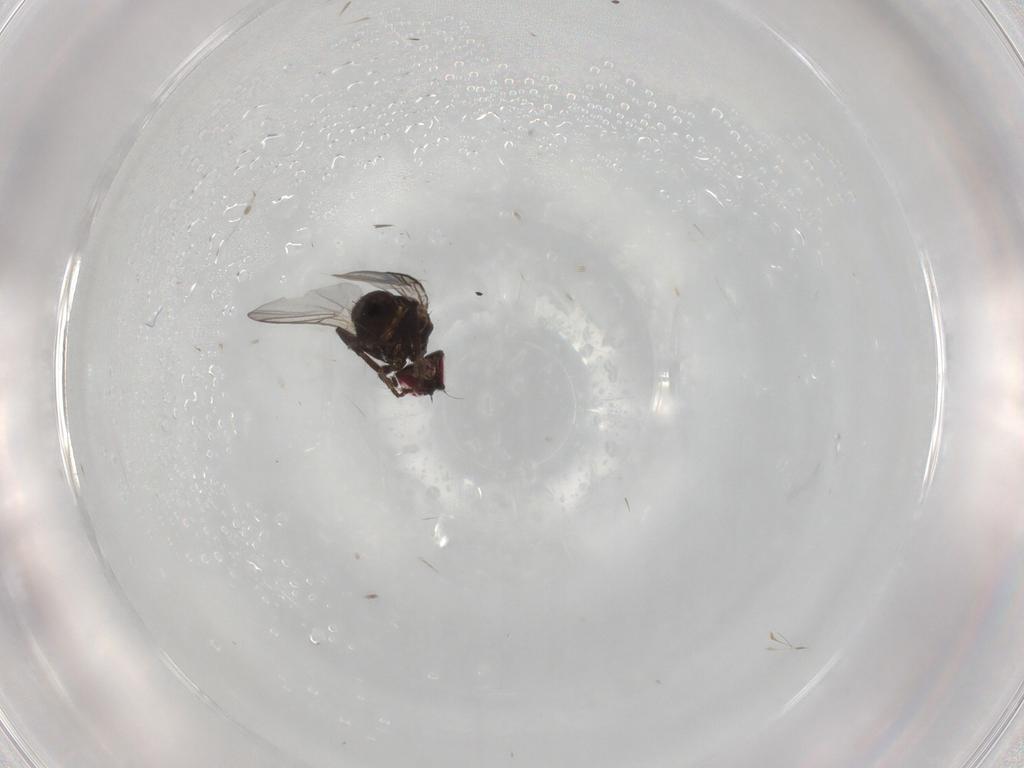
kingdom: Animalia
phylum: Arthropoda
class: Insecta
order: Diptera
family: Agromyzidae
